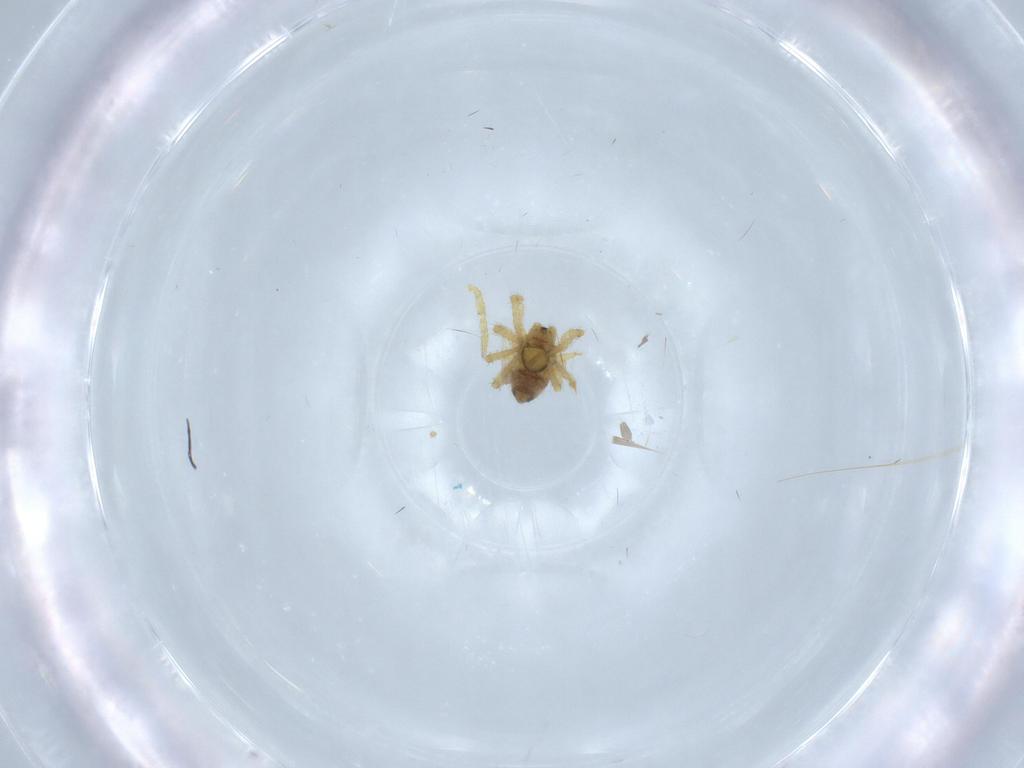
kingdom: Animalia
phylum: Arthropoda
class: Arachnida
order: Araneae
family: Theridiidae
